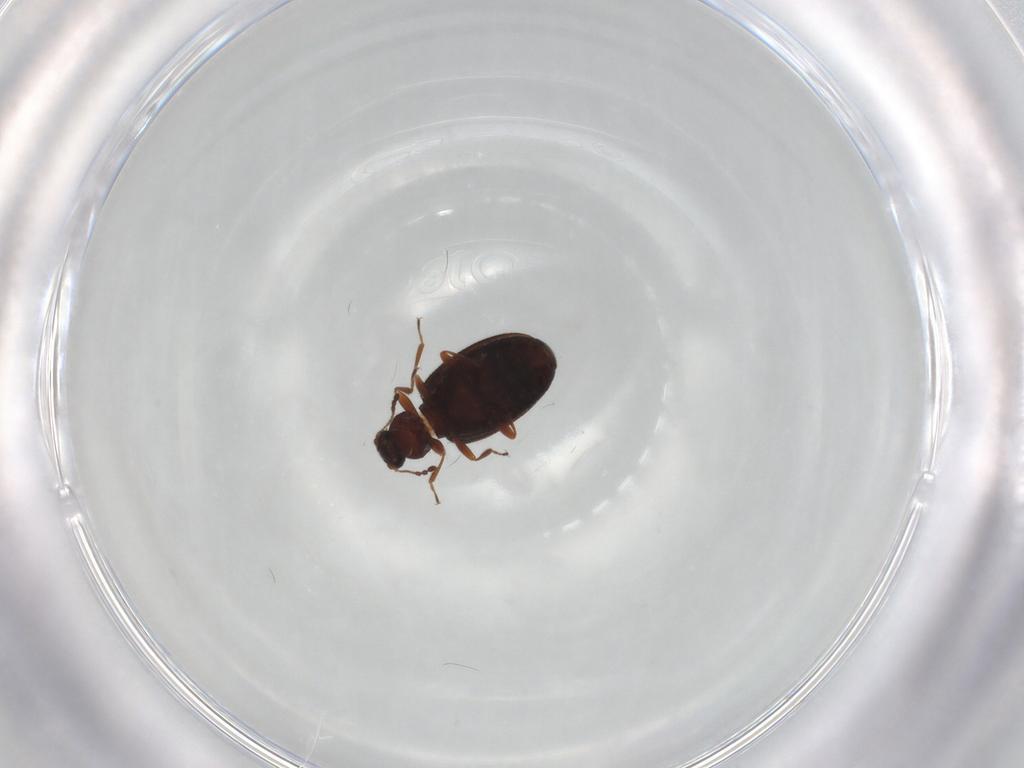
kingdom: Animalia
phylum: Arthropoda
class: Insecta
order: Coleoptera
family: Latridiidae
